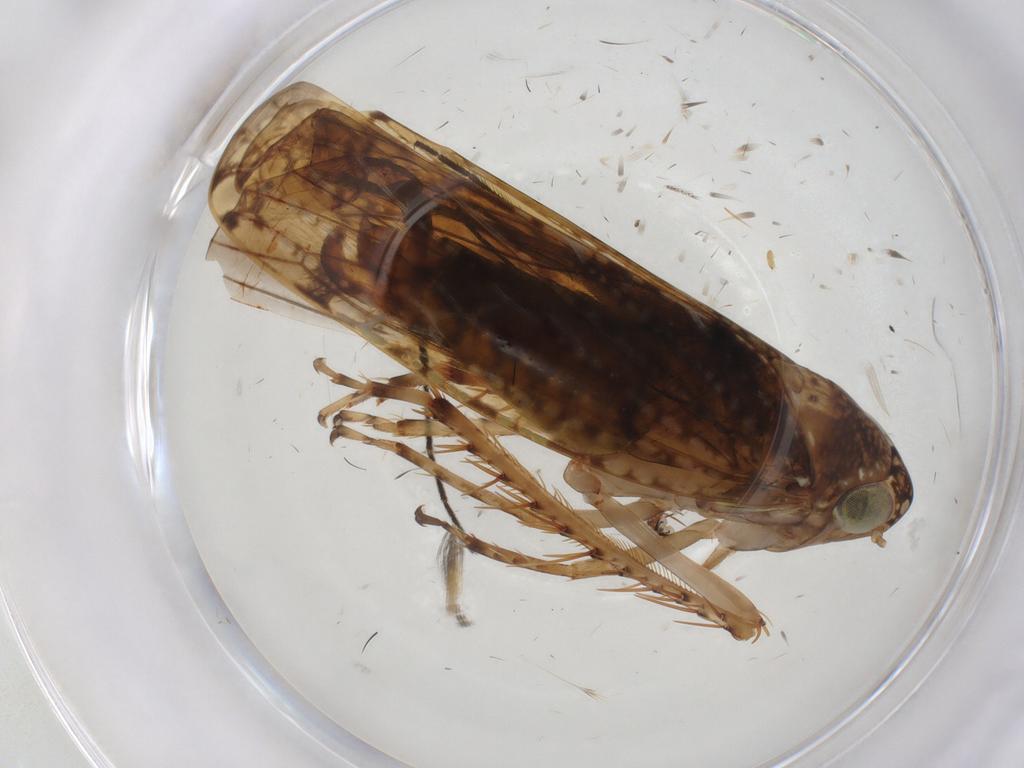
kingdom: Animalia
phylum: Arthropoda
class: Insecta
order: Hemiptera
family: Cicadellidae
